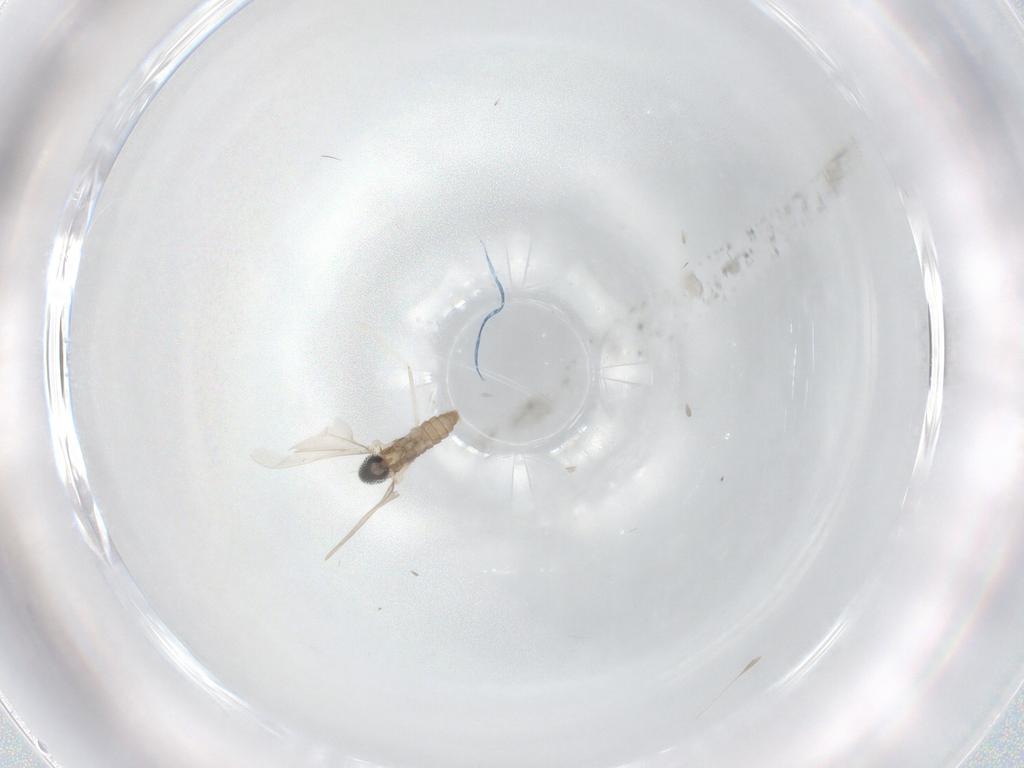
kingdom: Animalia
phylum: Arthropoda
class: Insecta
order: Diptera
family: Cecidomyiidae
